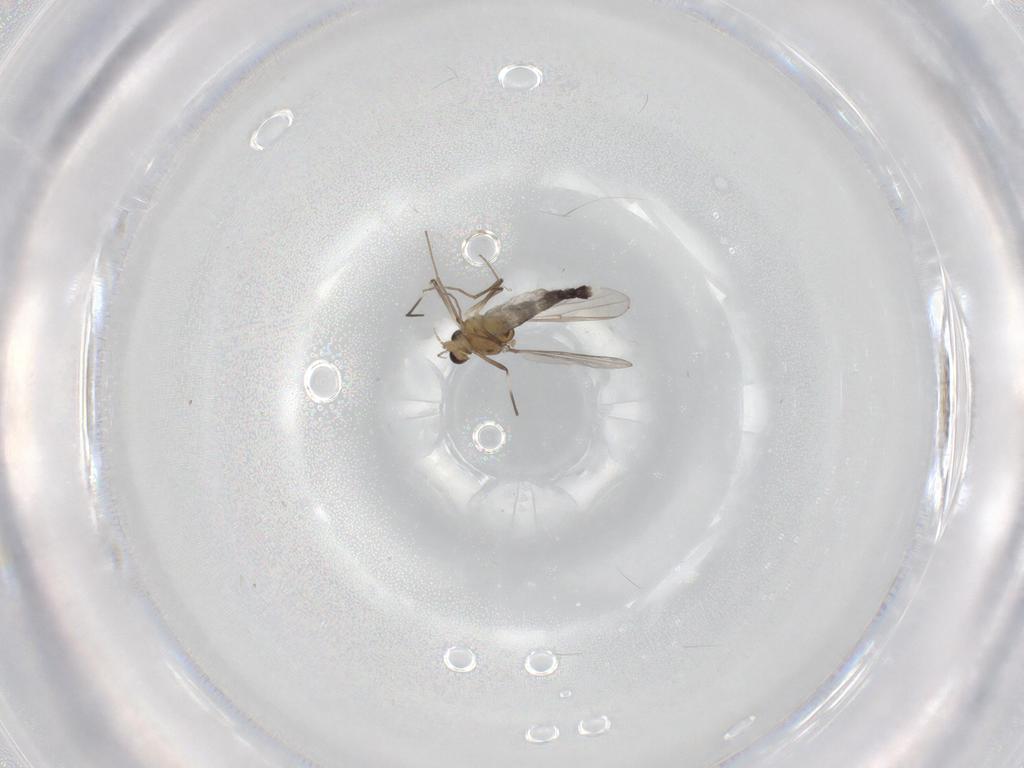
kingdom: Animalia
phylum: Arthropoda
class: Insecta
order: Diptera
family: Chironomidae
